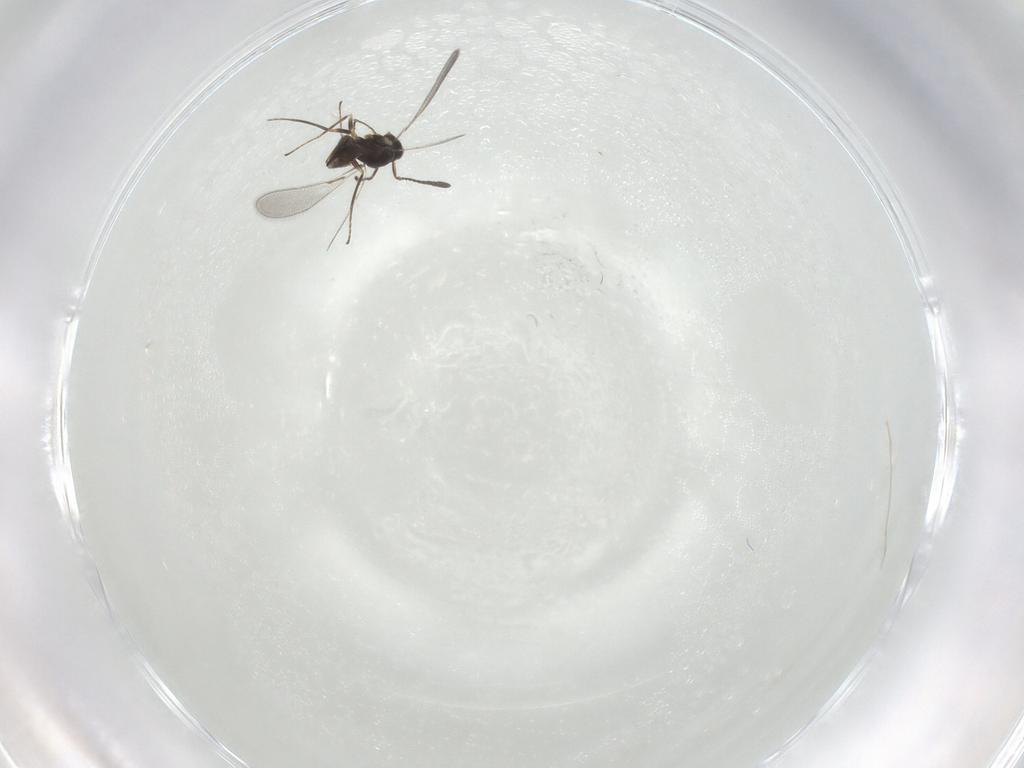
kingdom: Animalia
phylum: Arthropoda
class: Insecta
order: Hymenoptera
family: Mymaridae
